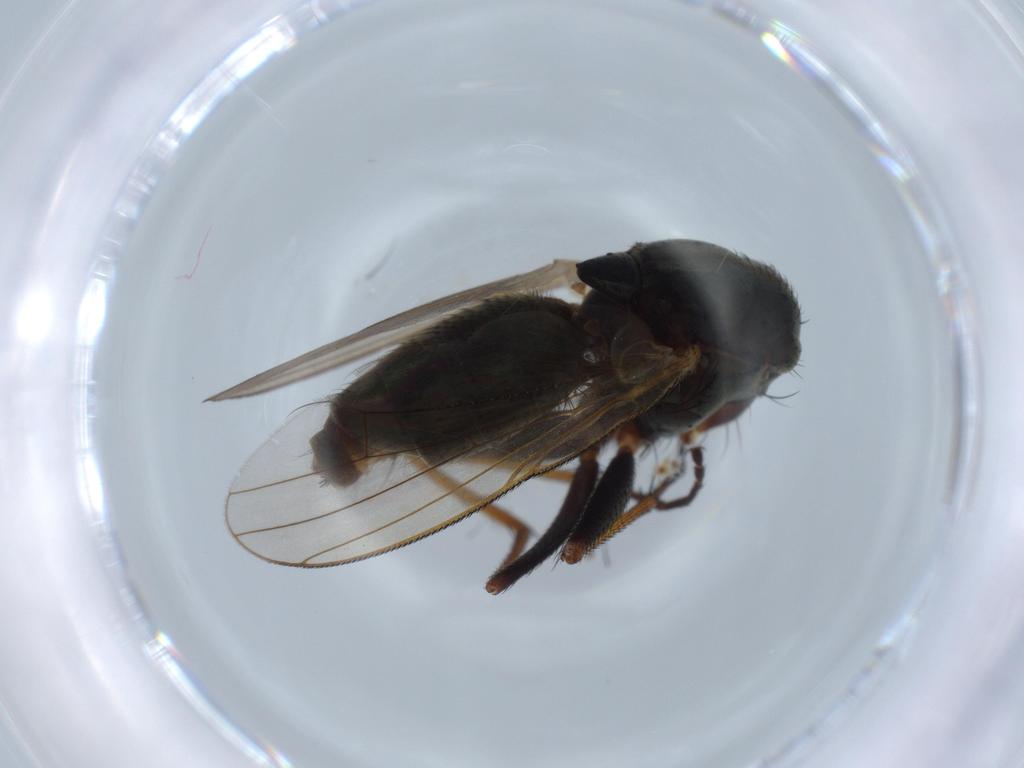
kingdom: Animalia
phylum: Arthropoda
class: Insecta
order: Diptera
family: Muscidae
